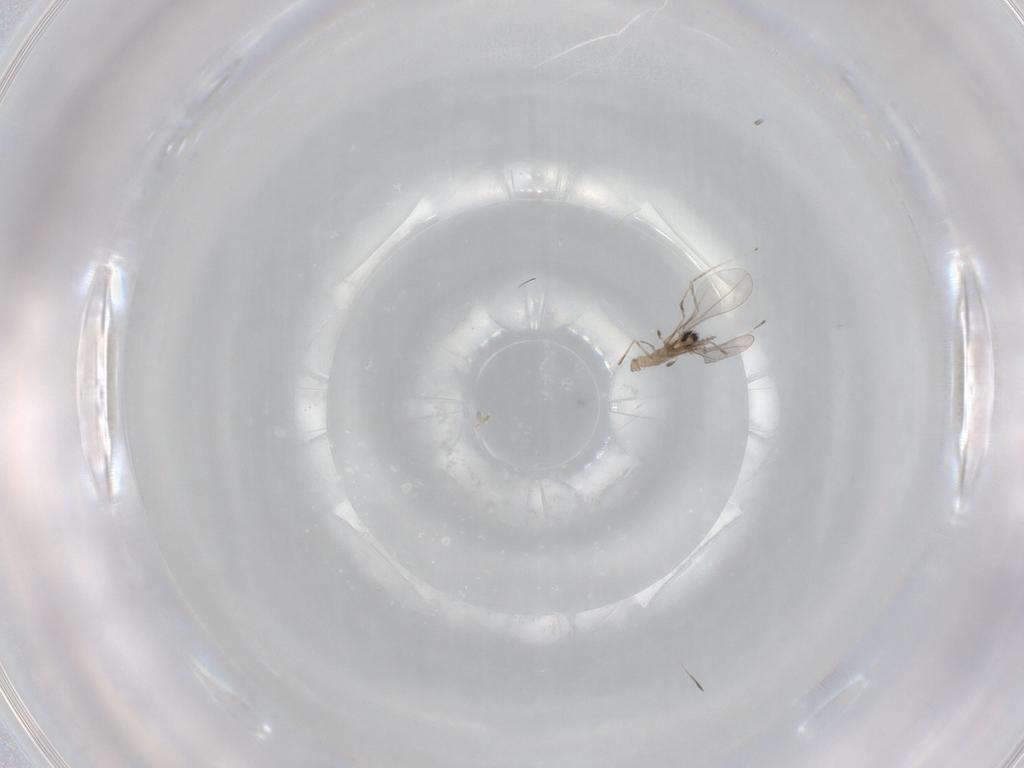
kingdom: Animalia
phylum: Arthropoda
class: Insecta
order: Diptera
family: Cecidomyiidae
